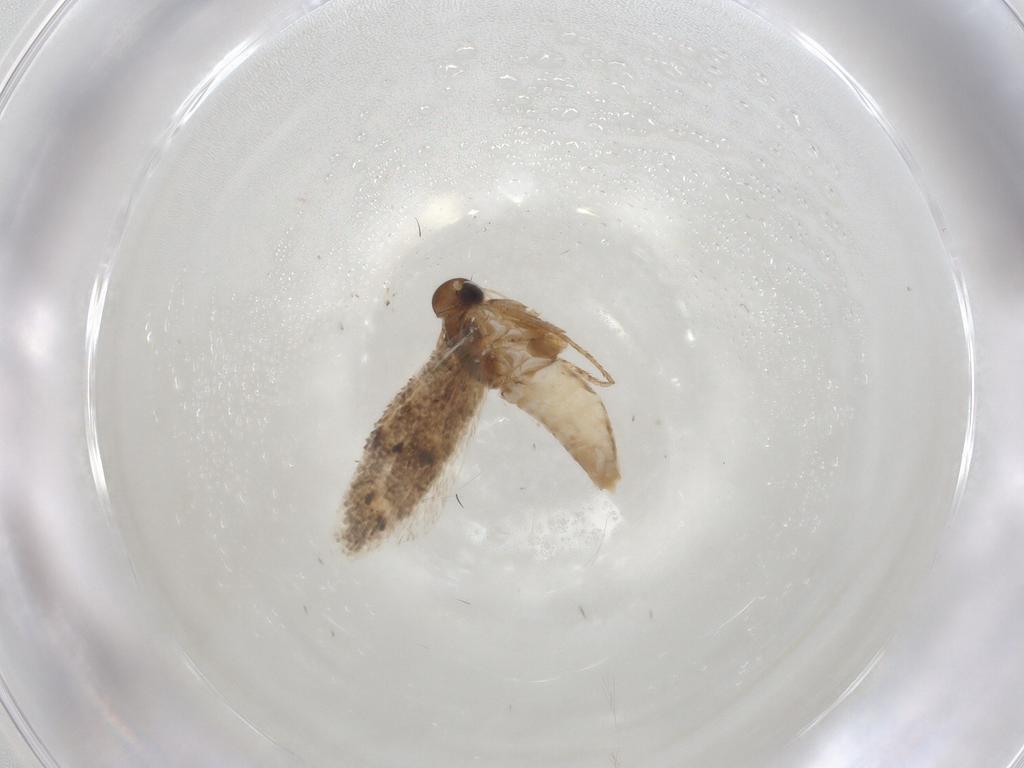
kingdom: Animalia
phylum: Arthropoda
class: Insecta
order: Lepidoptera
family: Gelechiidae
